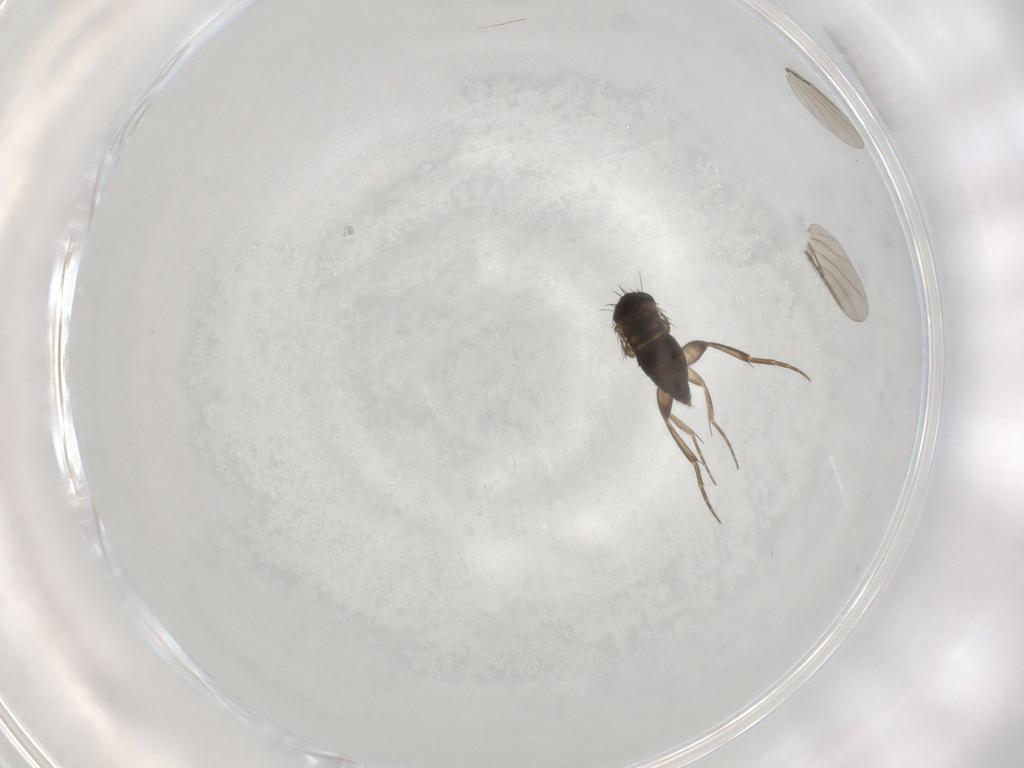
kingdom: Animalia
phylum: Arthropoda
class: Insecta
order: Diptera
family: Phoridae
